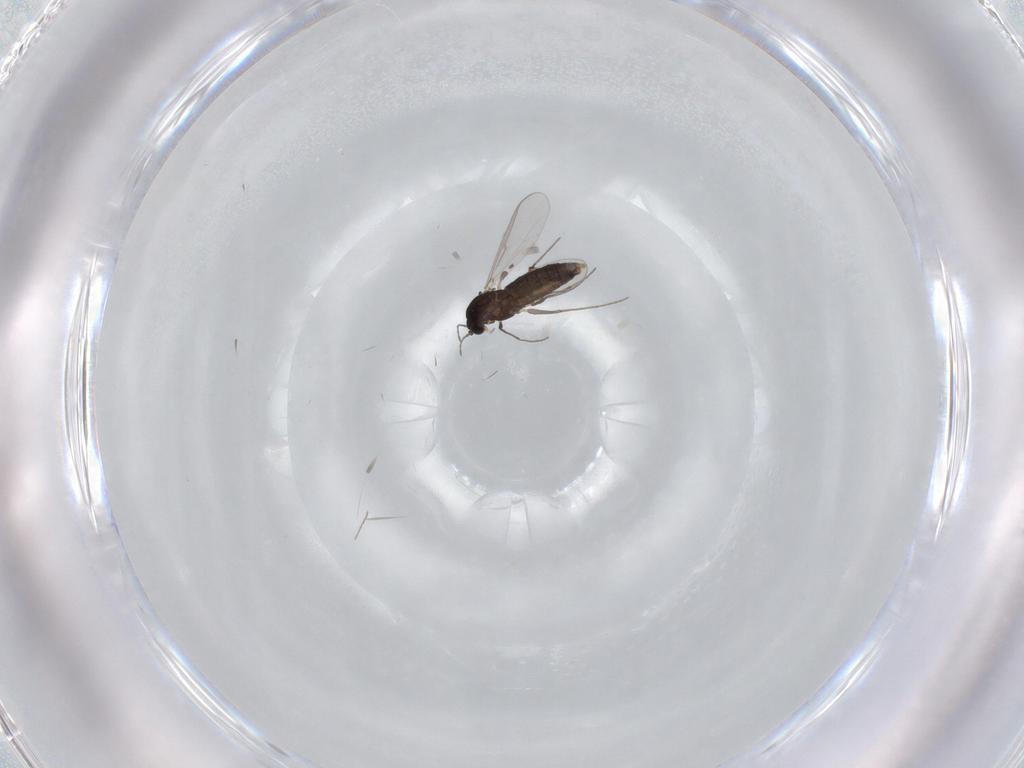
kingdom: Animalia
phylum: Arthropoda
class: Insecta
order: Diptera
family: Chironomidae
